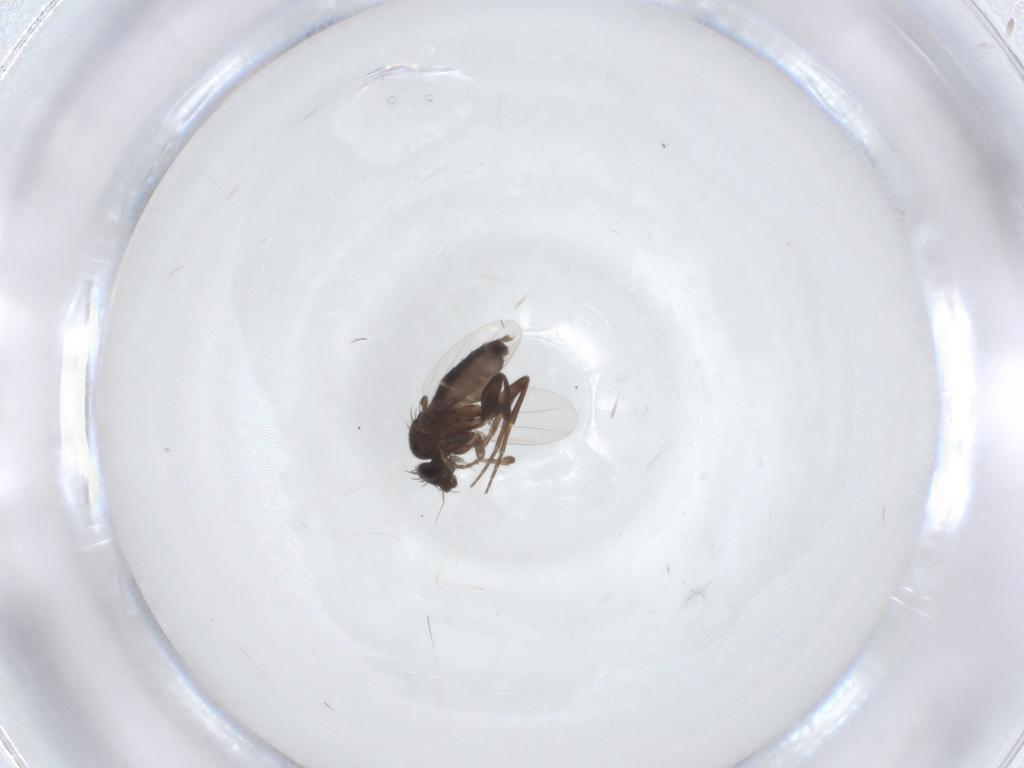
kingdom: Animalia
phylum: Arthropoda
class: Insecta
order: Diptera
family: Phoridae
